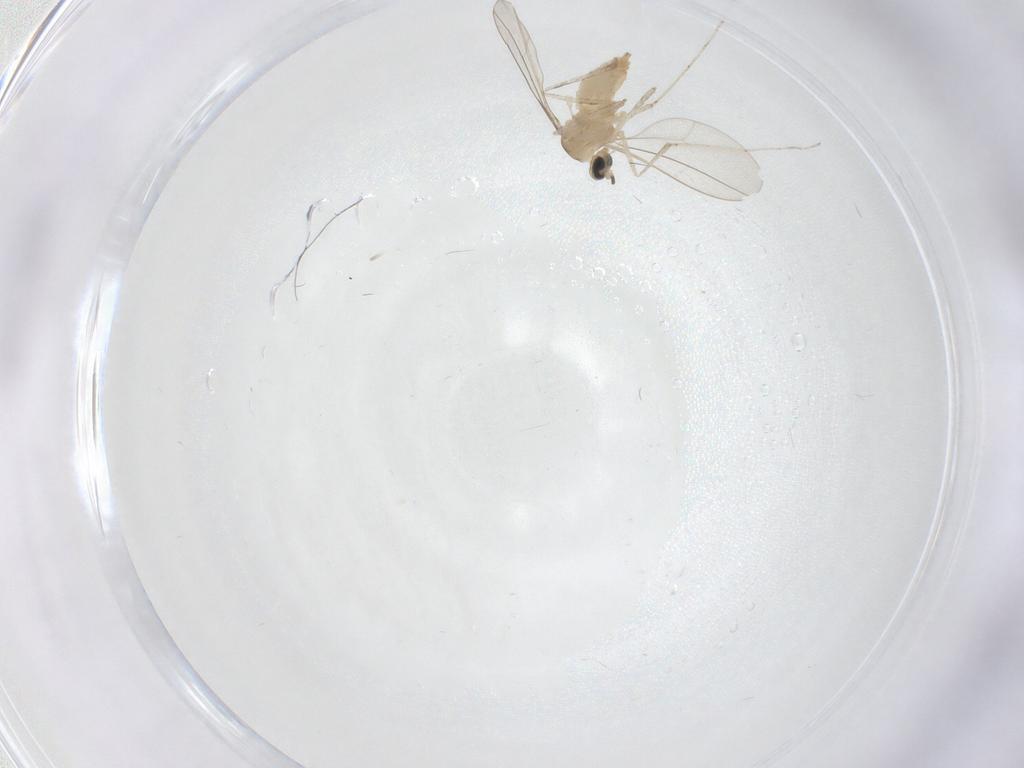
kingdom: Animalia
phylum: Arthropoda
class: Insecta
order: Diptera
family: Cecidomyiidae
